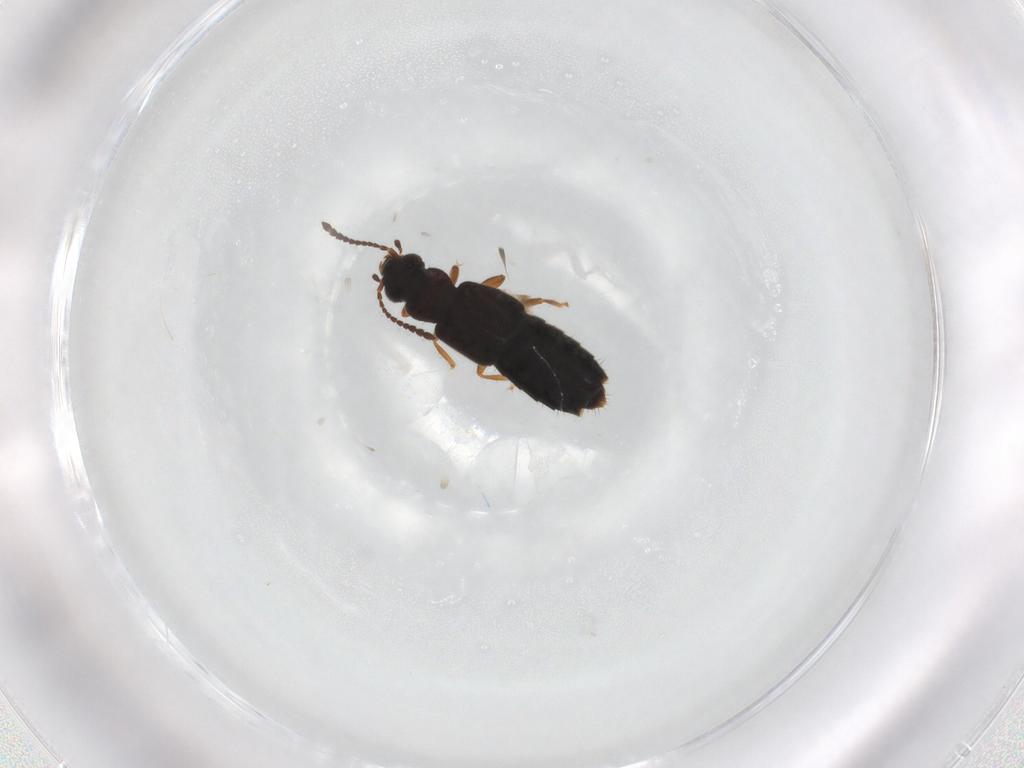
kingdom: Animalia
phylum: Arthropoda
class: Insecta
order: Coleoptera
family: Staphylinidae
